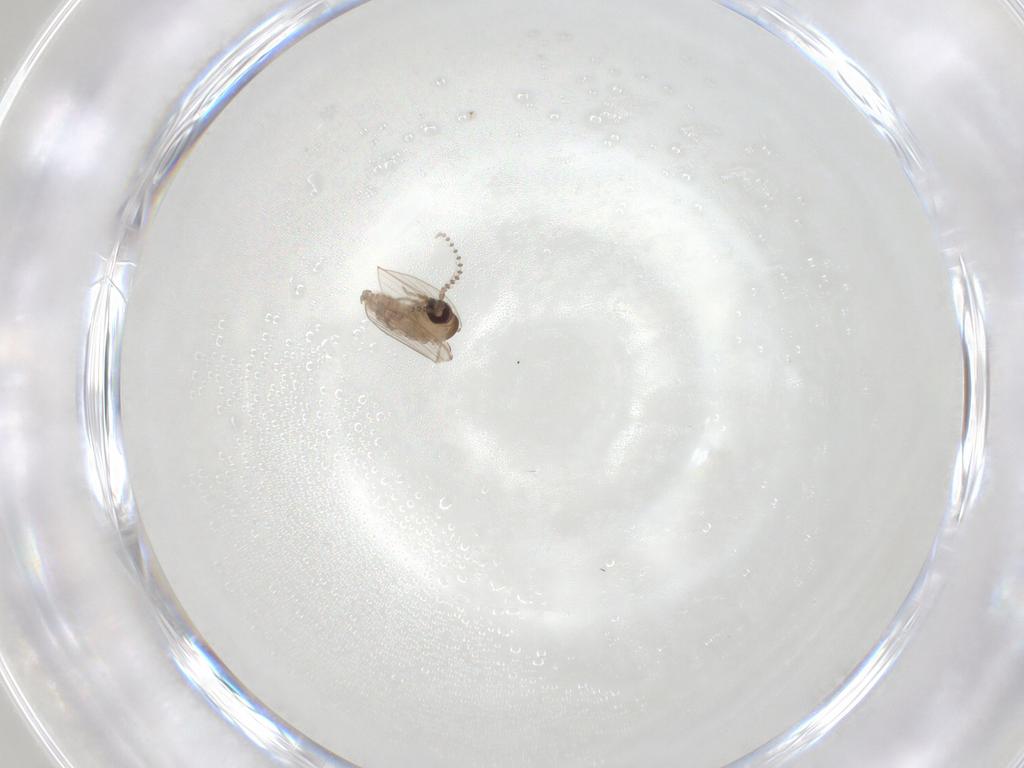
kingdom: Animalia
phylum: Arthropoda
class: Insecta
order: Diptera
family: Psychodidae
